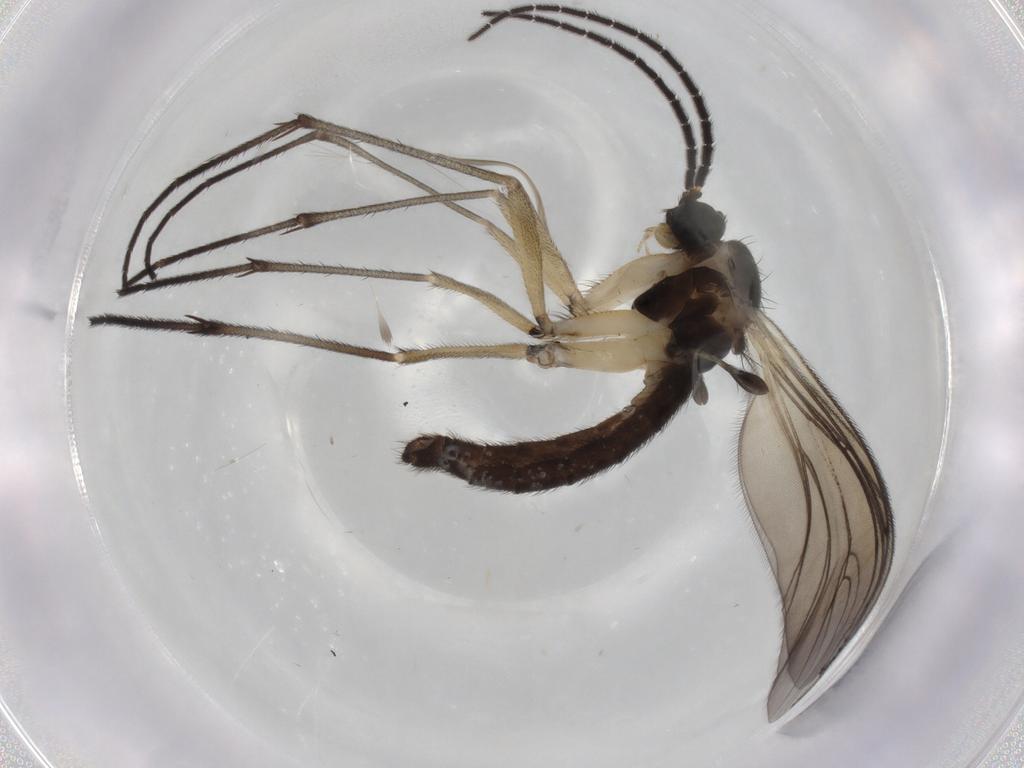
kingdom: Animalia
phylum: Arthropoda
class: Insecta
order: Diptera
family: Sciaridae
